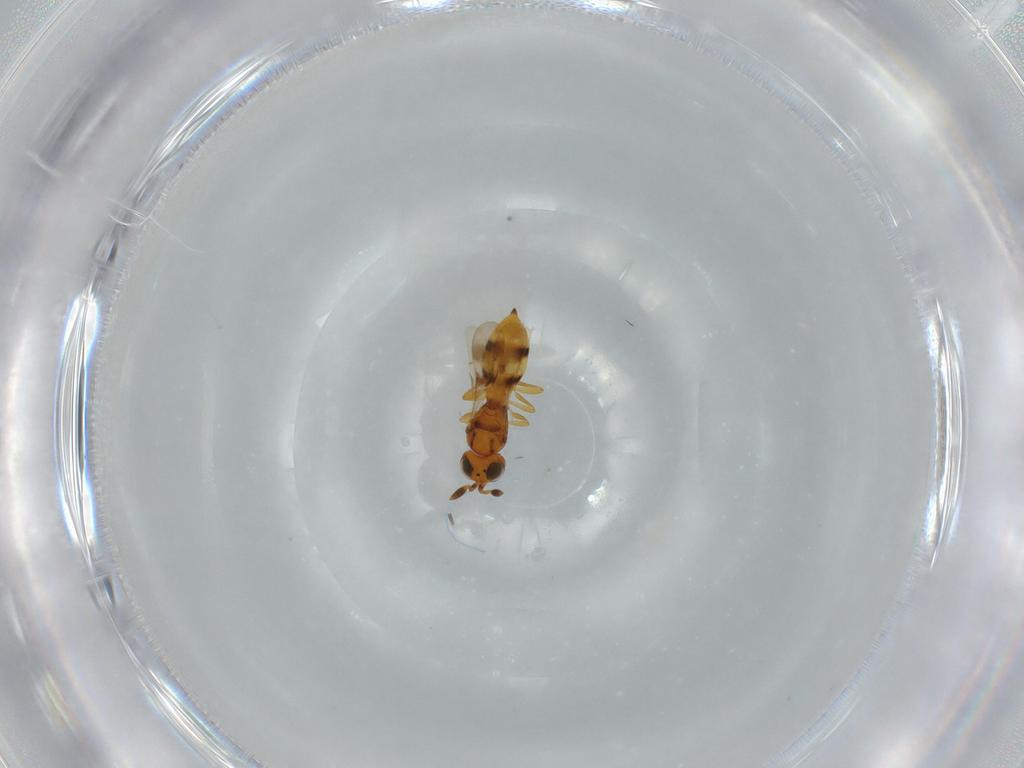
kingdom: Animalia
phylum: Arthropoda
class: Insecta
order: Hymenoptera
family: Scelionidae
